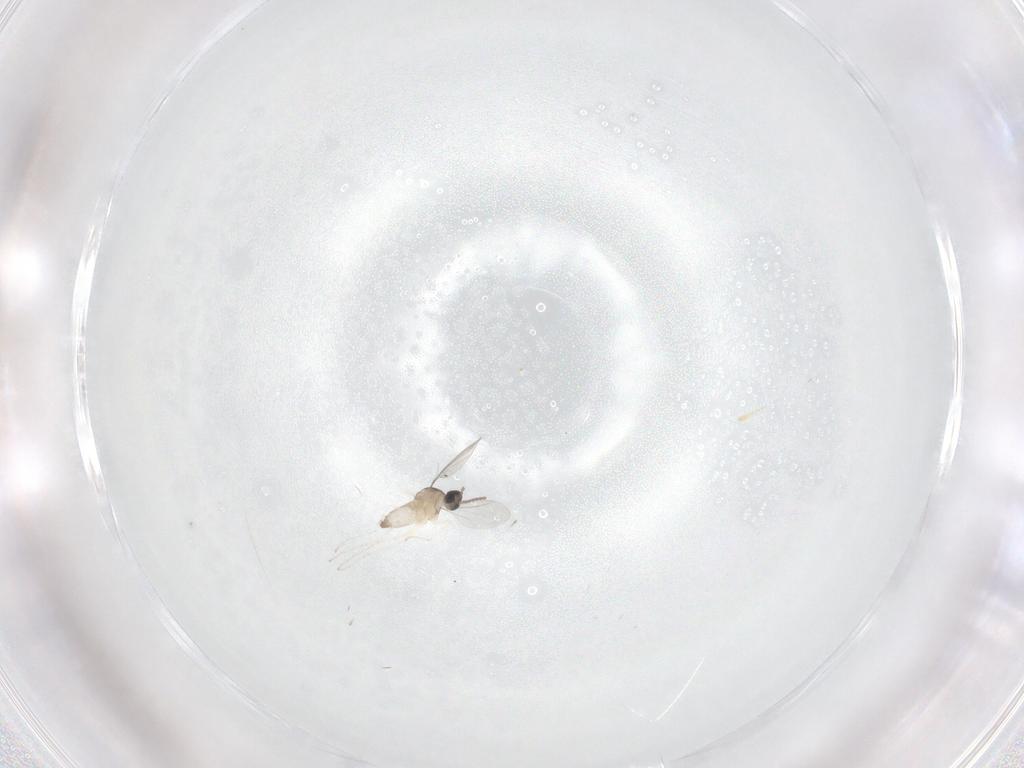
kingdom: Animalia
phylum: Arthropoda
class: Insecta
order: Diptera
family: Cecidomyiidae
